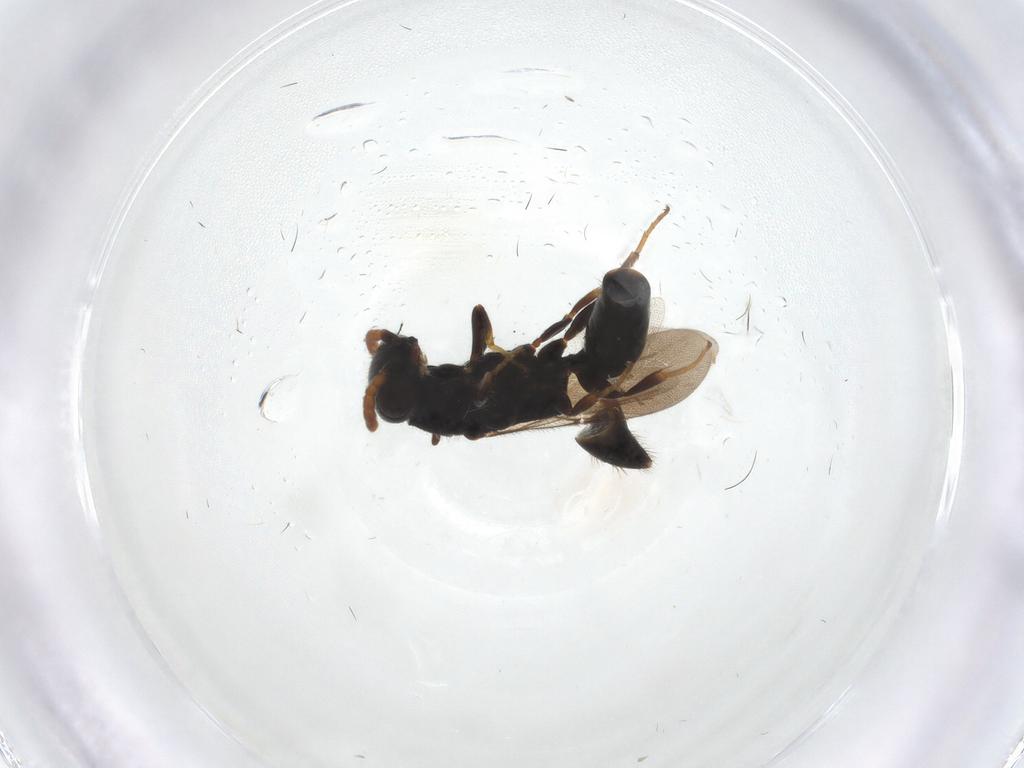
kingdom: Animalia
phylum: Arthropoda
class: Insecta
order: Hymenoptera
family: Bethylidae
